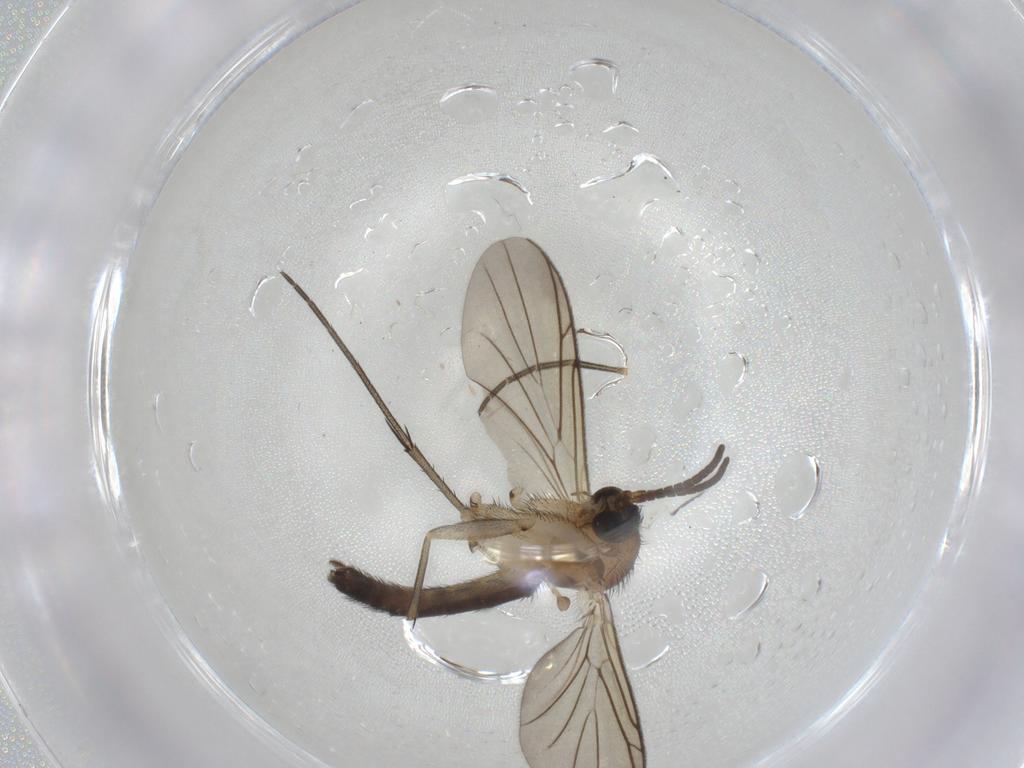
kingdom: Animalia
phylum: Arthropoda
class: Insecta
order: Diptera
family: Keroplatidae
